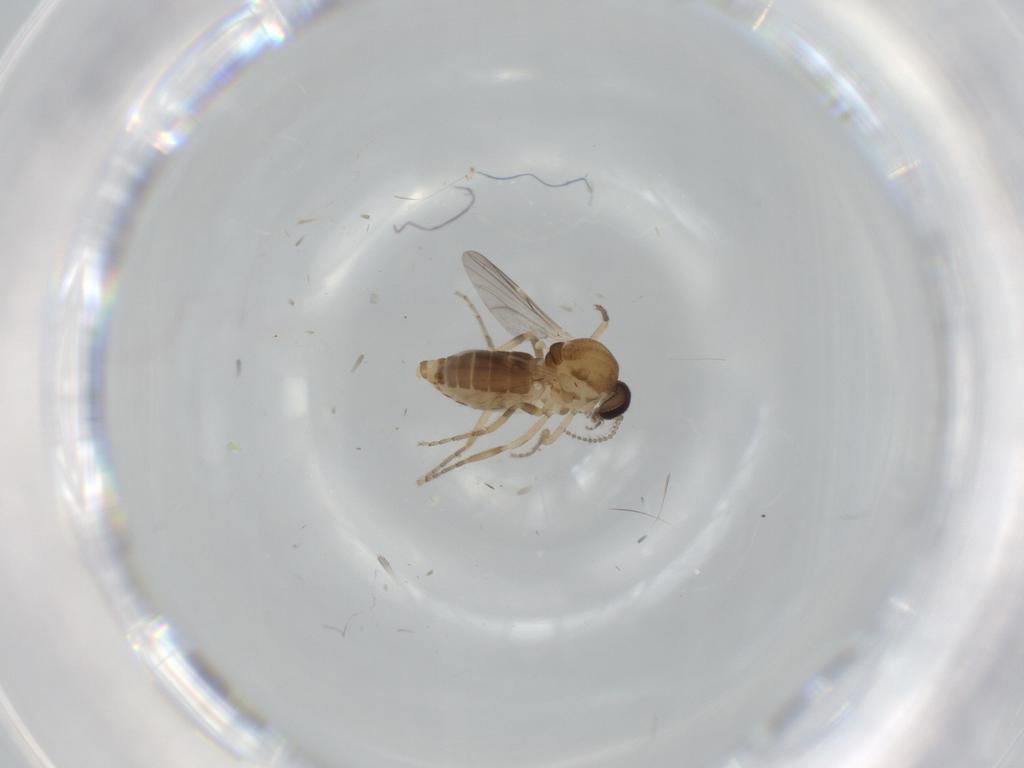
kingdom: Animalia
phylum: Arthropoda
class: Insecta
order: Diptera
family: Ceratopogonidae
